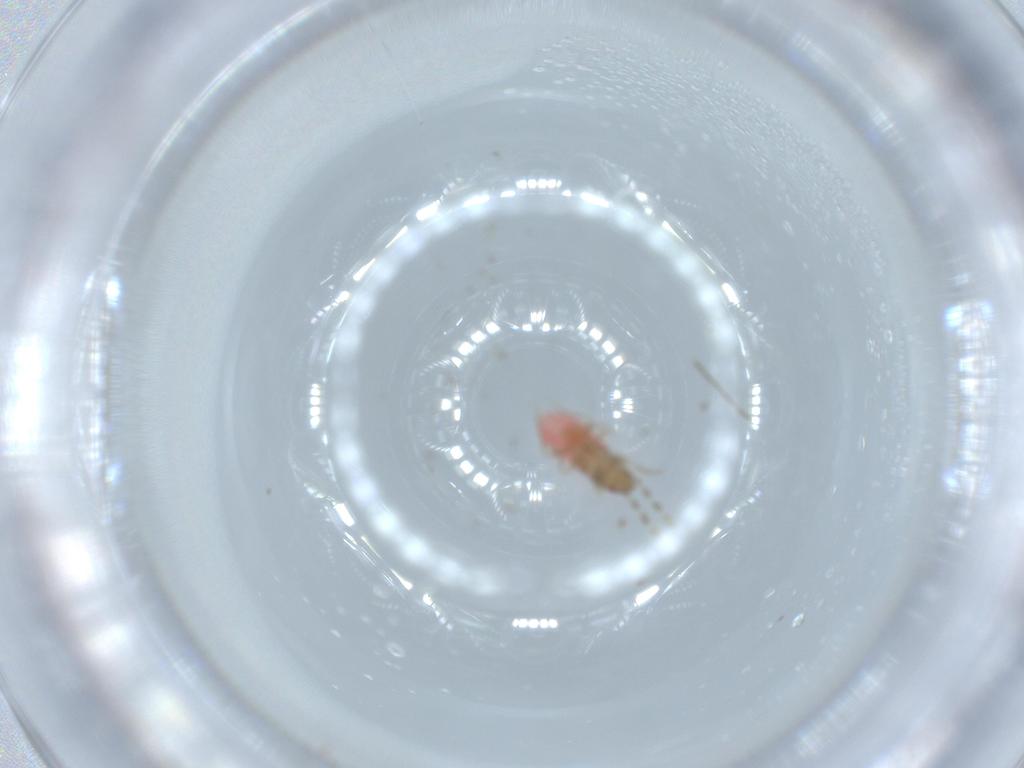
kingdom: Animalia
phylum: Arthropoda
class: Insecta
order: Hemiptera
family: Rhyparochromidae
